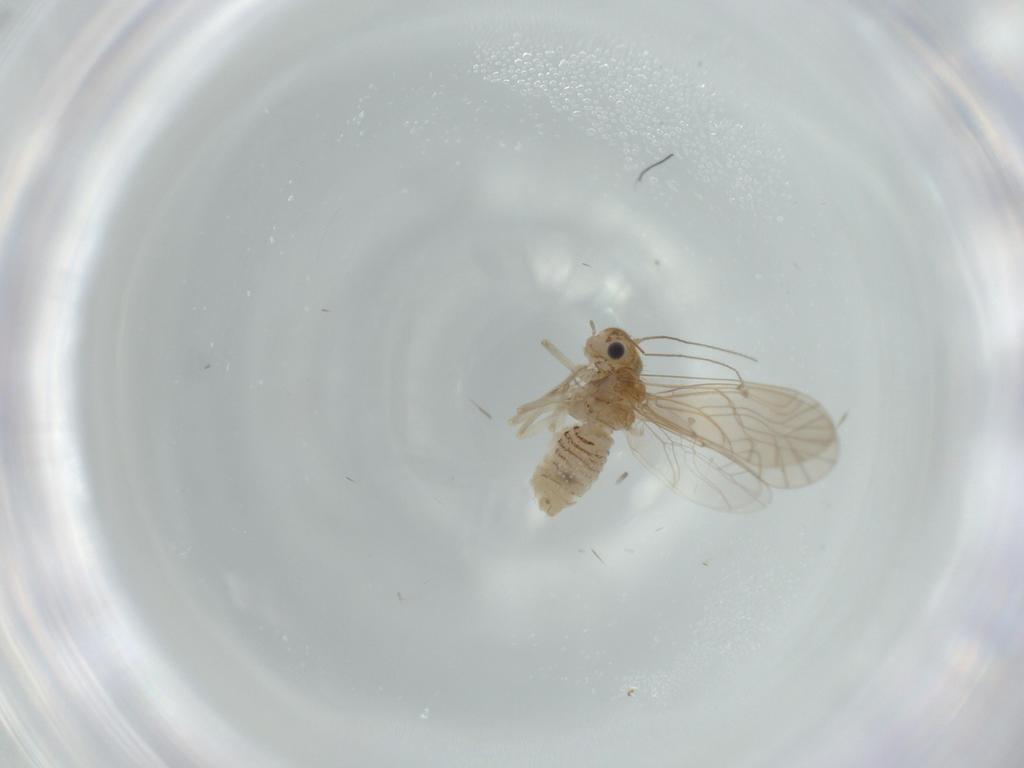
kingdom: Animalia
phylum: Arthropoda
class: Insecta
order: Psocodea
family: Lachesillidae
